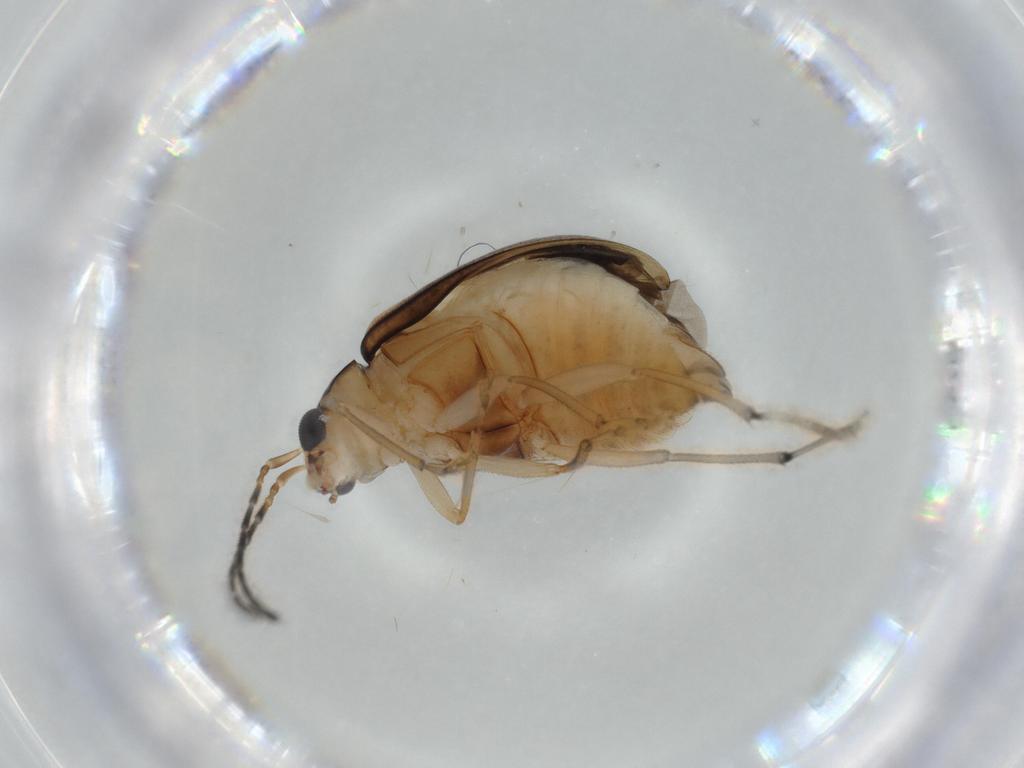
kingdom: Animalia
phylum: Arthropoda
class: Insecta
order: Coleoptera
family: Chrysomelidae
